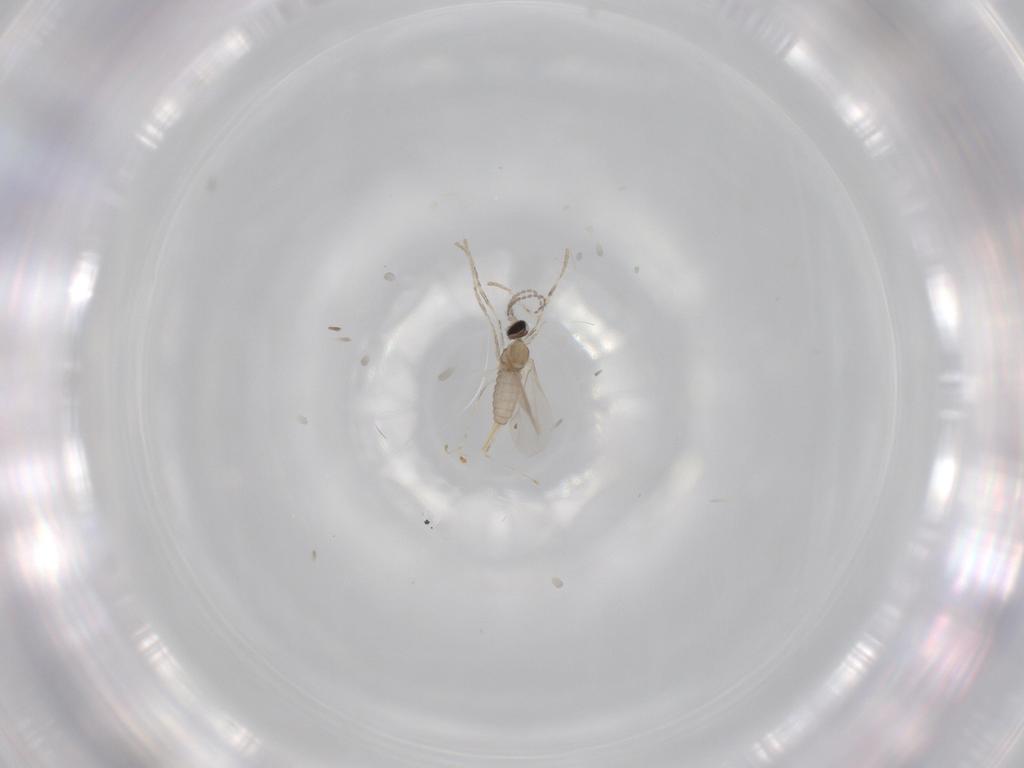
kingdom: Animalia
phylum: Arthropoda
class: Insecta
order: Diptera
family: Cecidomyiidae
